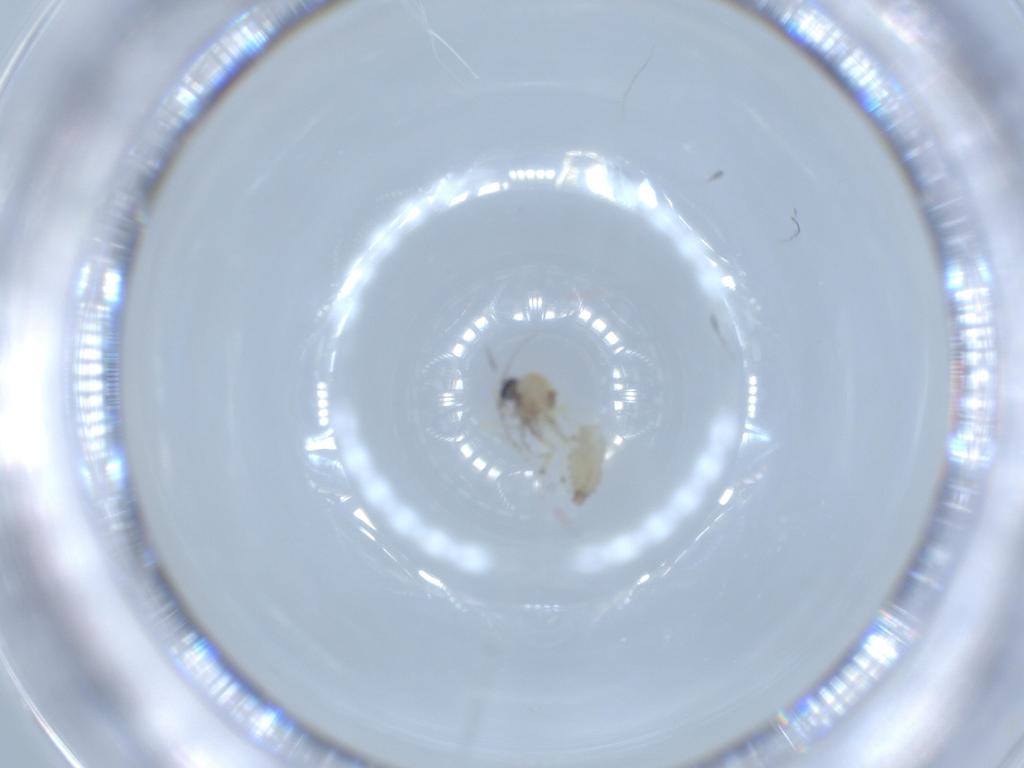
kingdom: Animalia
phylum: Arthropoda
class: Insecta
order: Diptera
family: Ceratopogonidae
